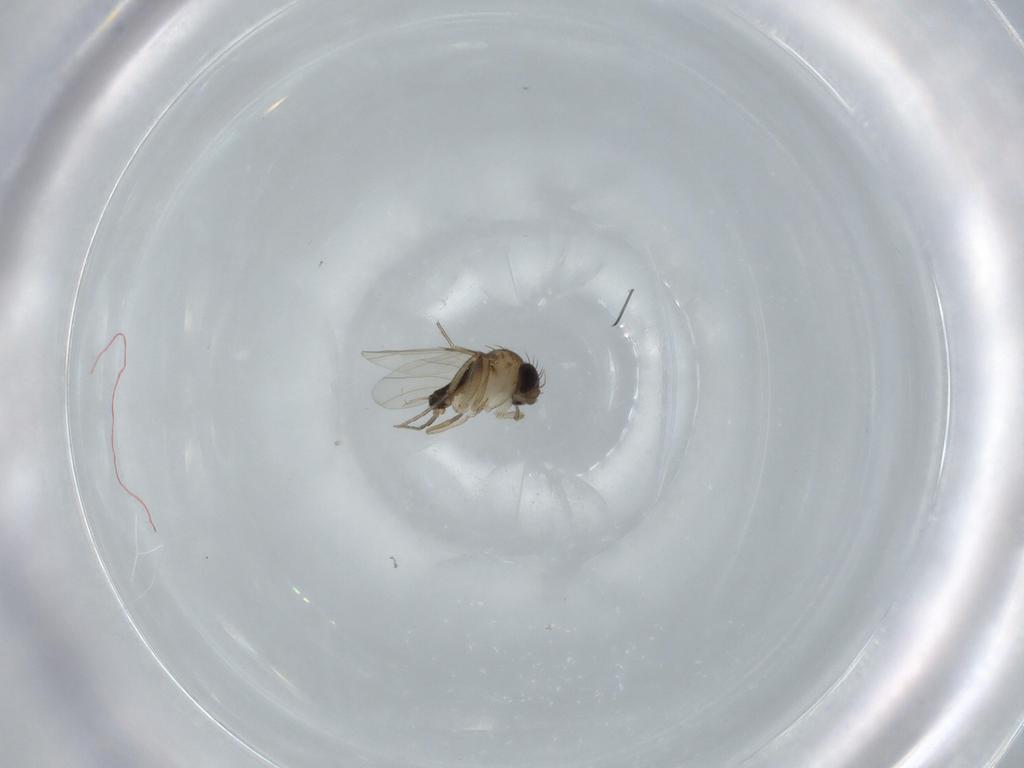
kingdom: Animalia
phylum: Arthropoda
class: Insecta
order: Diptera
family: Phoridae
